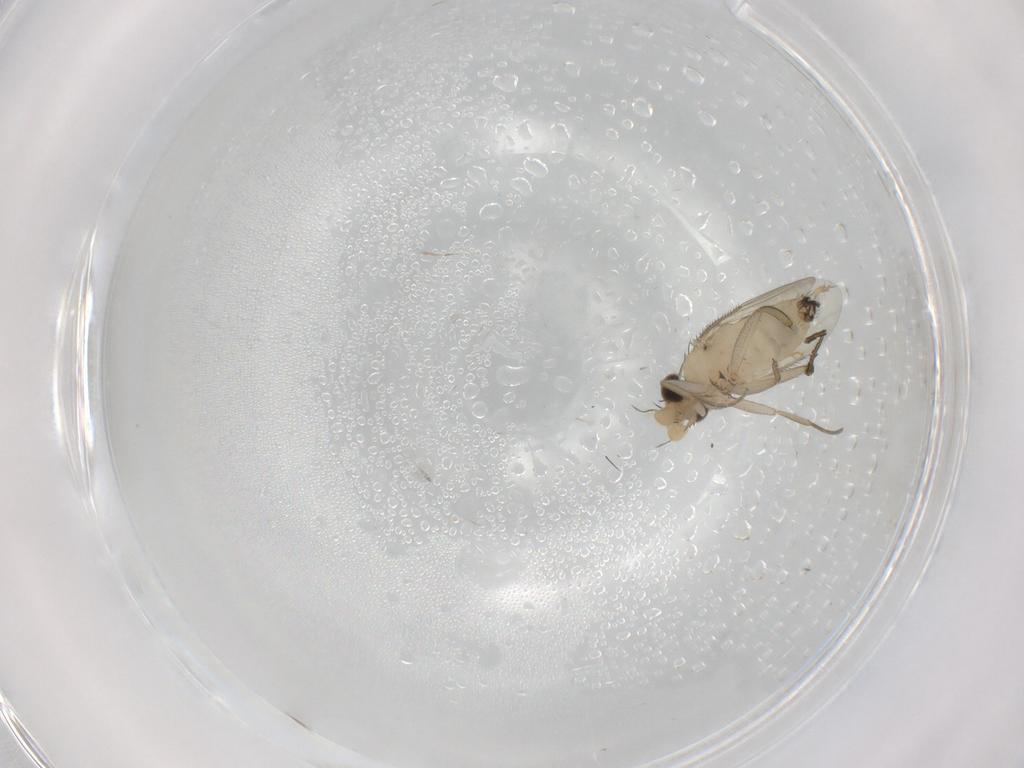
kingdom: Animalia
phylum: Arthropoda
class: Insecta
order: Diptera
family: Phoridae
